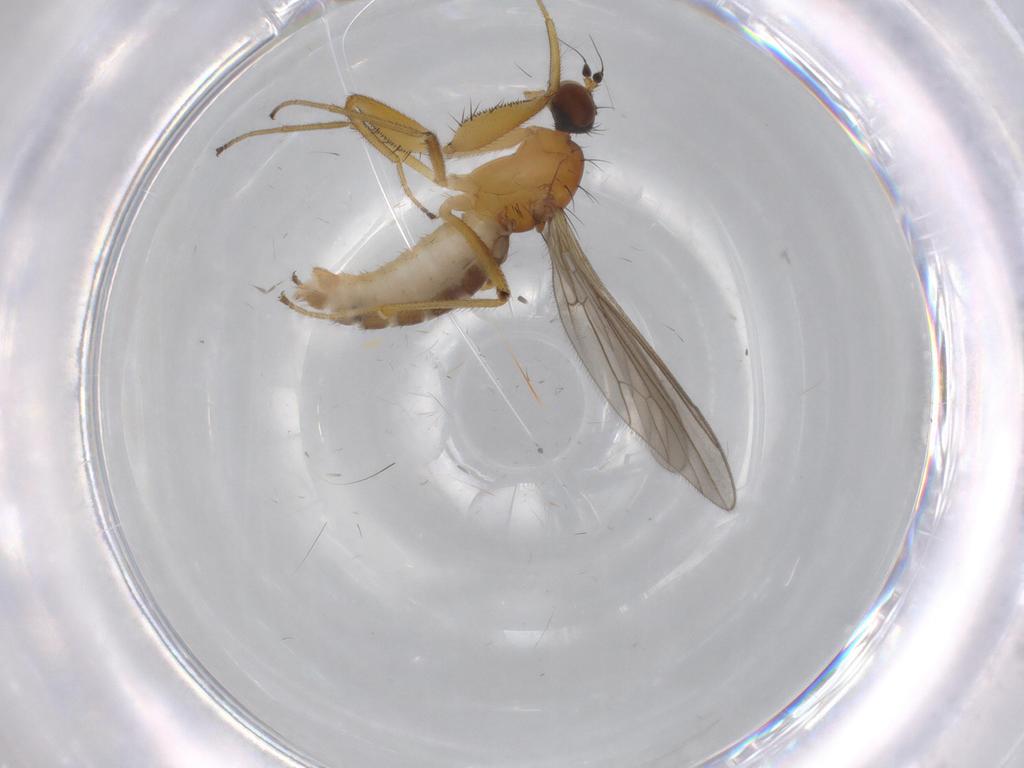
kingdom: Animalia
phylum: Arthropoda
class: Insecta
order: Diptera
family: Empididae
